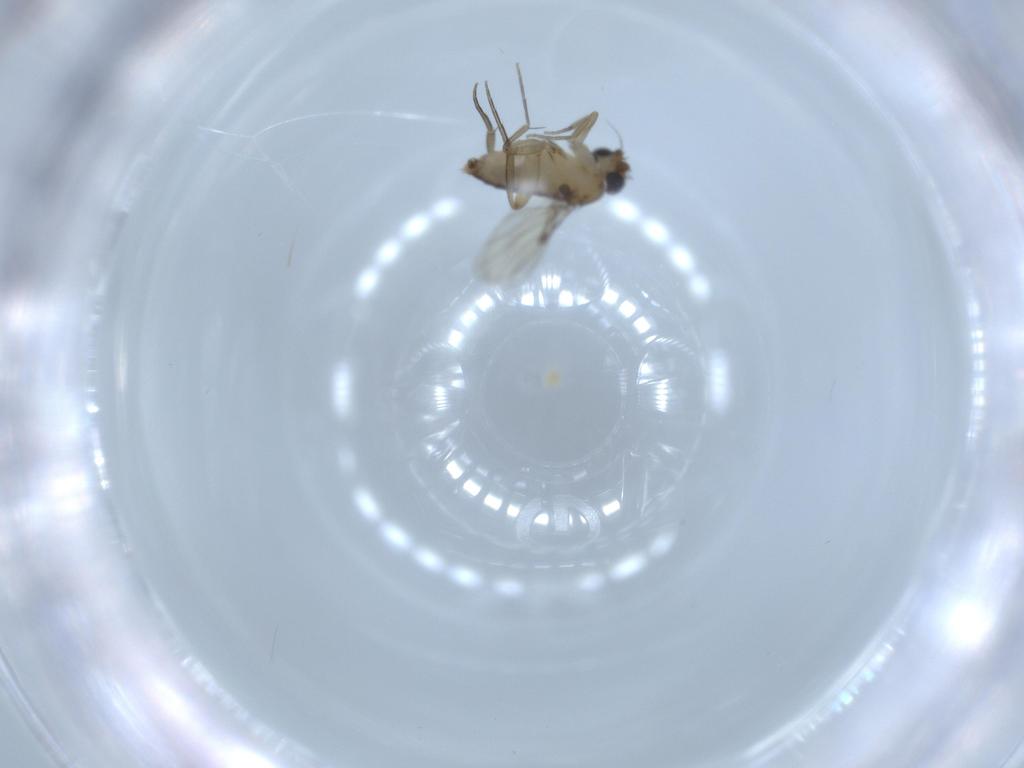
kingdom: Animalia
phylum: Arthropoda
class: Insecta
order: Diptera
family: Phoridae
